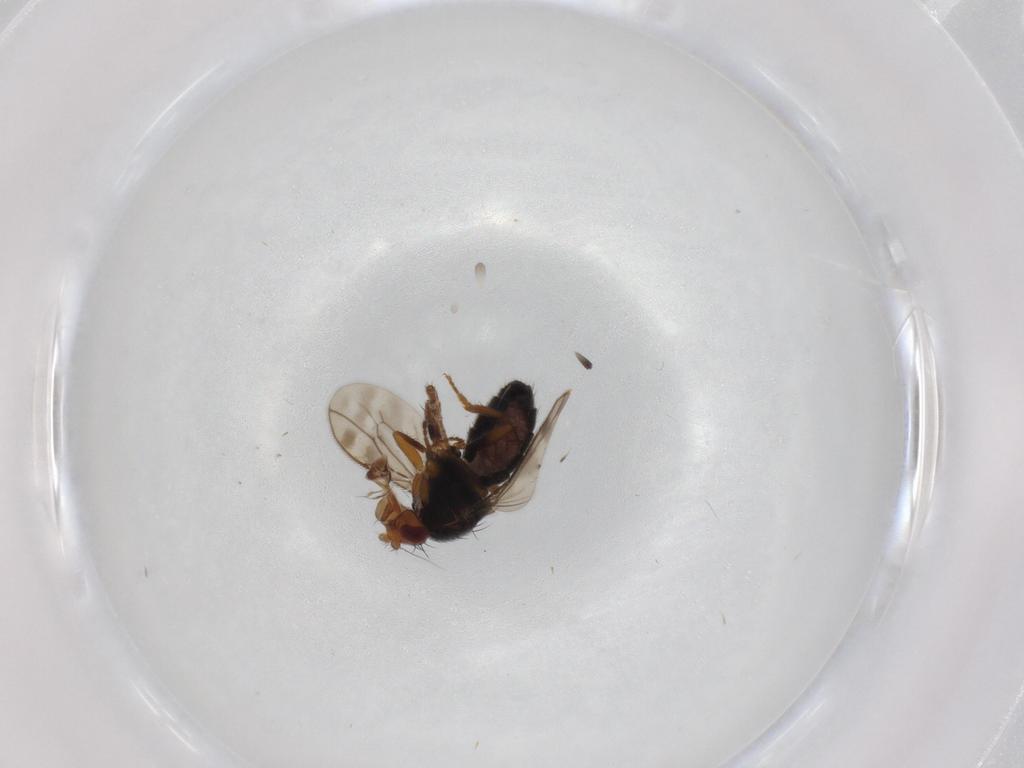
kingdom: Animalia
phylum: Arthropoda
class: Insecta
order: Diptera
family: Sphaeroceridae
